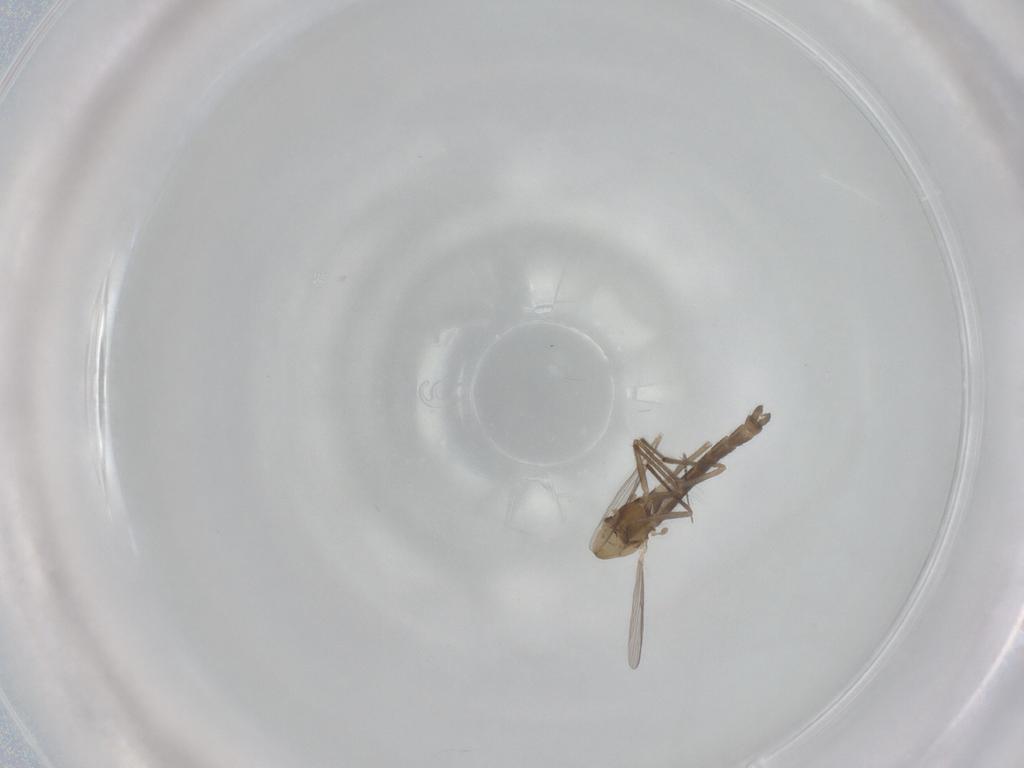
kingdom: Animalia
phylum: Arthropoda
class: Insecta
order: Diptera
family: Chironomidae
